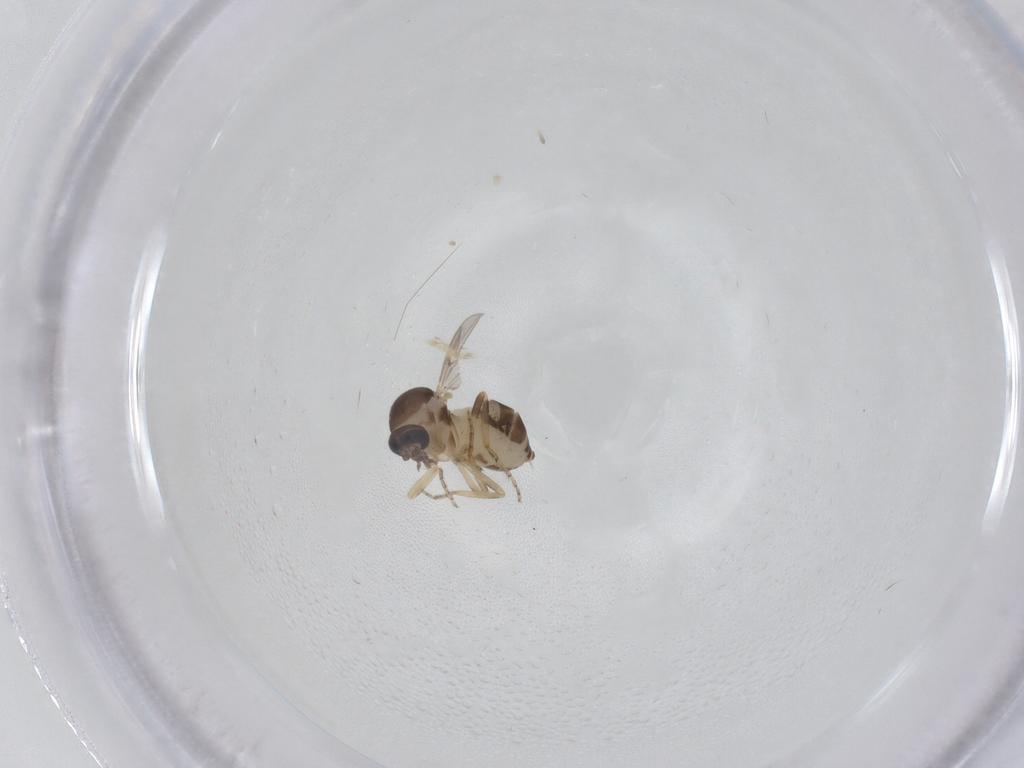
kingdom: Animalia
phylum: Arthropoda
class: Insecta
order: Diptera
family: Ceratopogonidae
